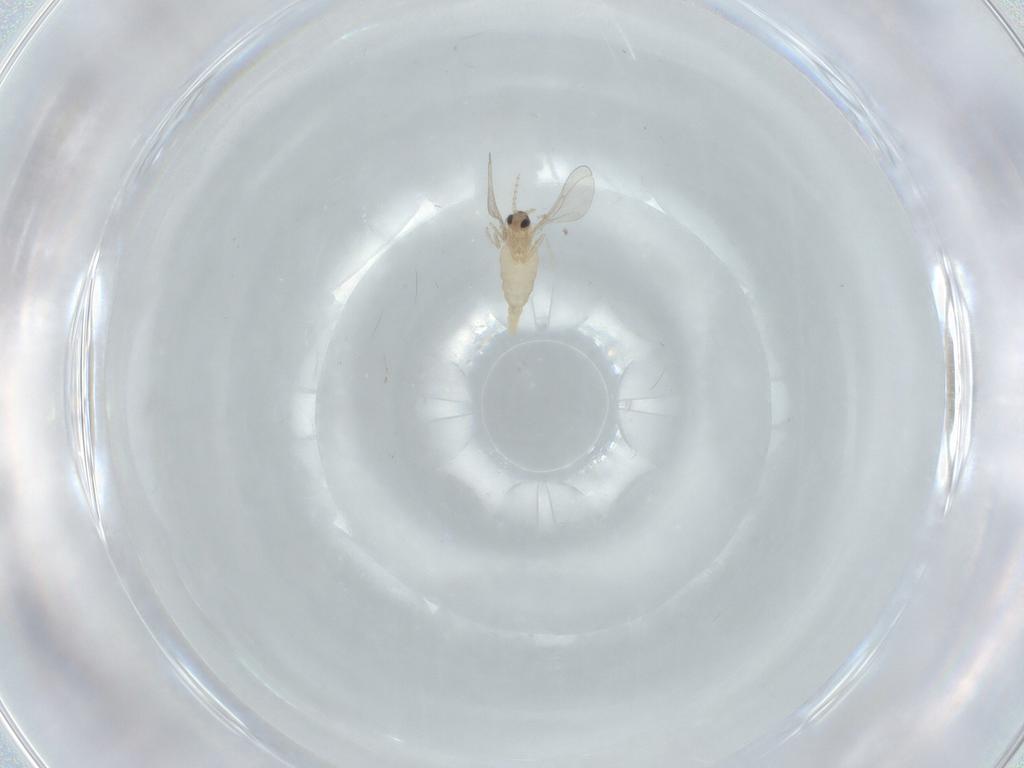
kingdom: Animalia
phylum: Arthropoda
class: Insecta
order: Diptera
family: Cecidomyiidae
